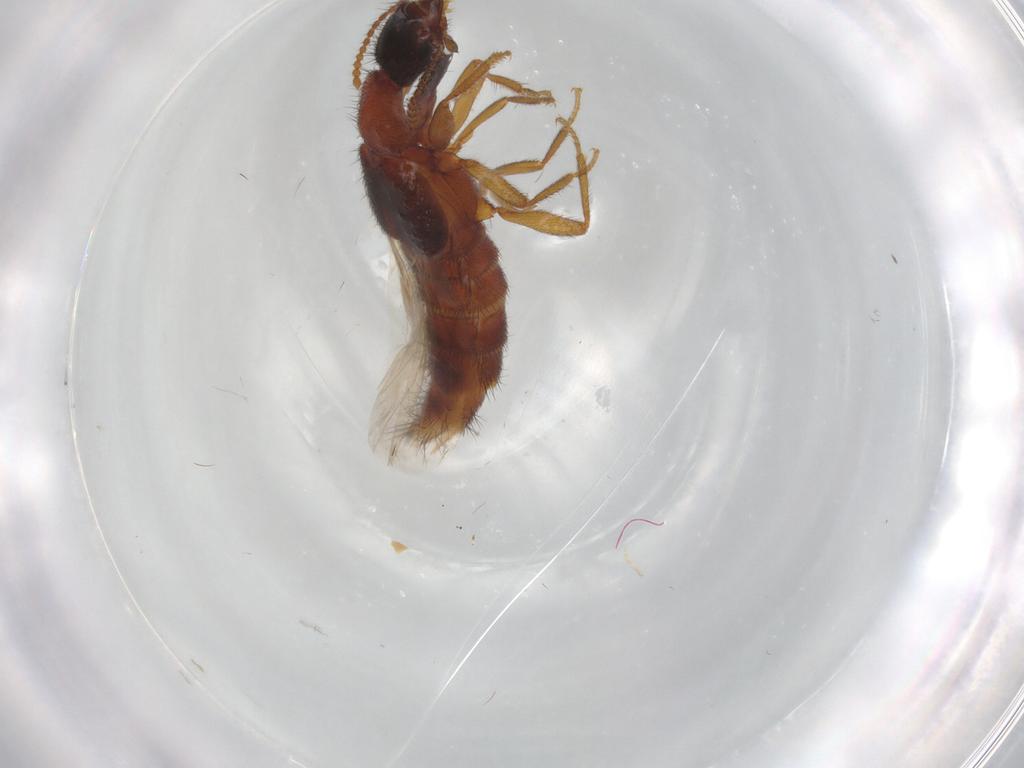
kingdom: Animalia
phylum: Arthropoda
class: Insecta
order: Coleoptera
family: Staphylinidae
